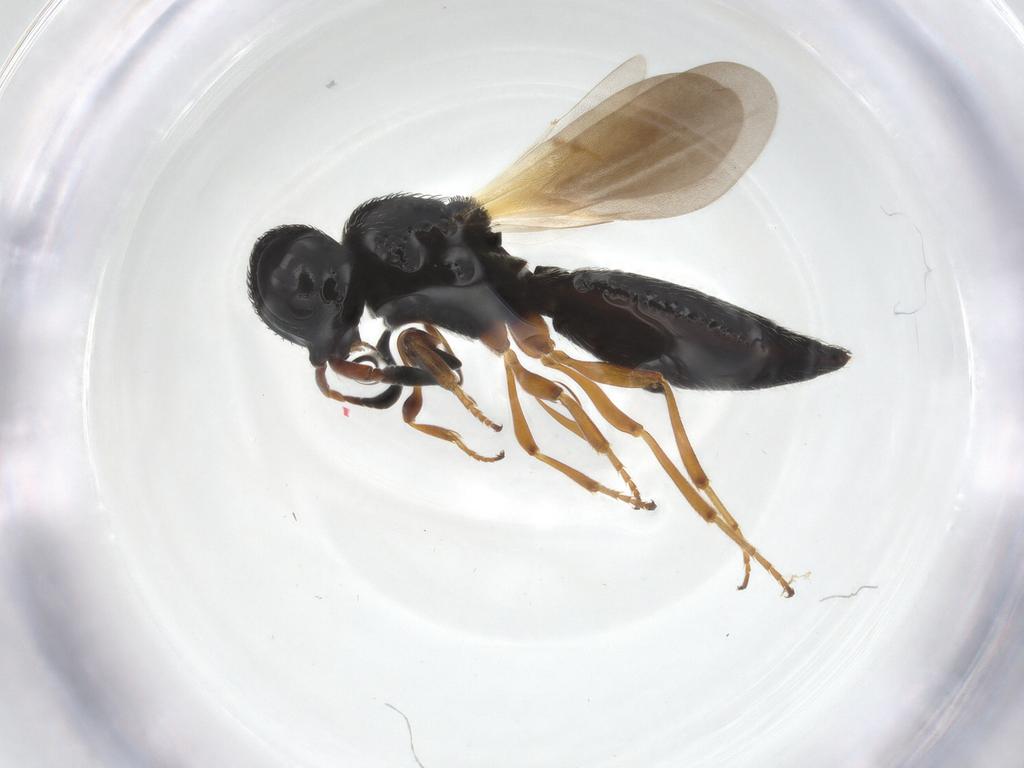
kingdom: Animalia
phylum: Arthropoda
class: Insecta
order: Hymenoptera
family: Scelionidae
